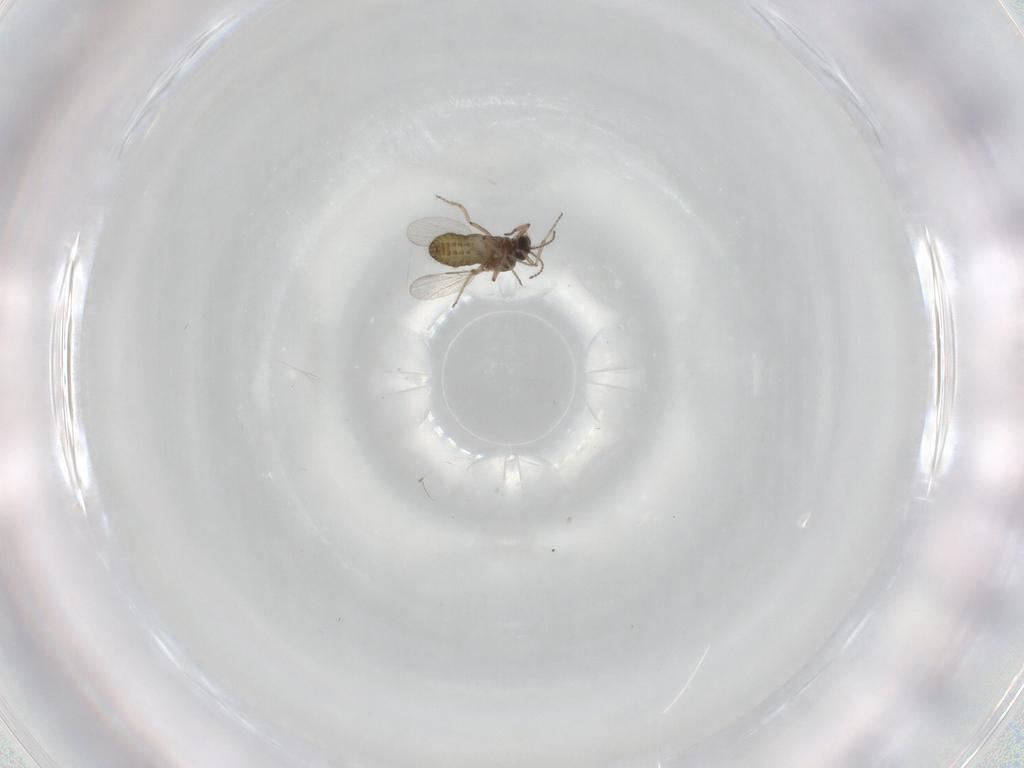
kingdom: Animalia
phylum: Arthropoda
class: Insecta
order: Diptera
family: Ceratopogonidae
